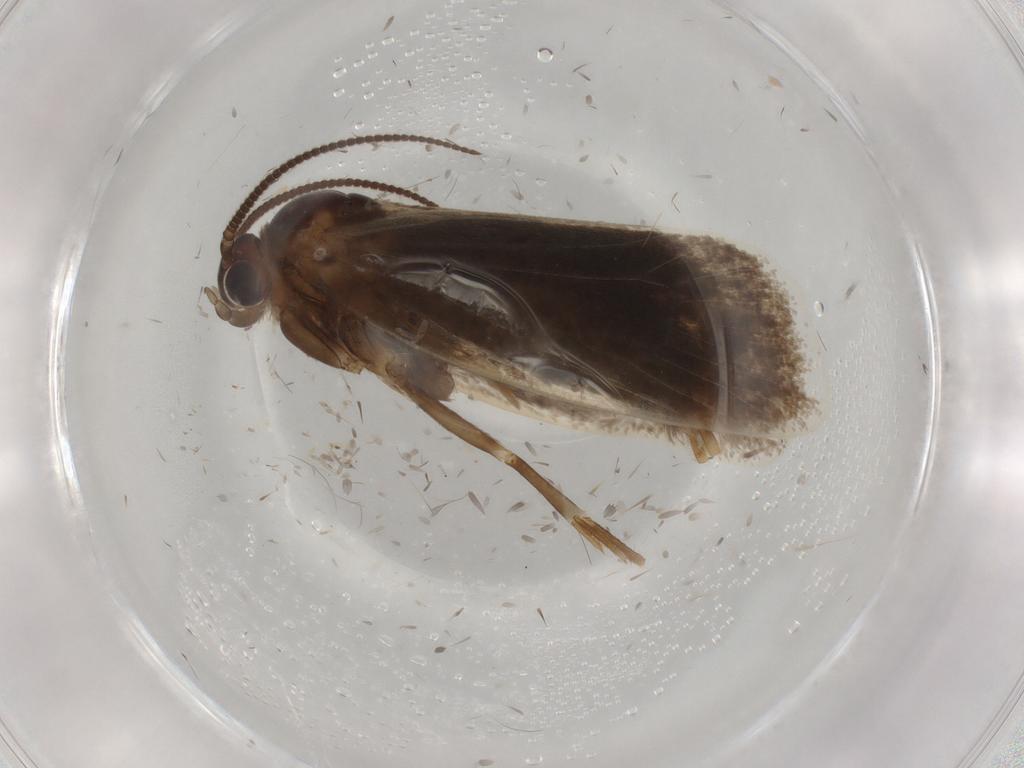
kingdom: Animalia
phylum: Arthropoda
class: Insecta
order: Lepidoptera
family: Tineidae
